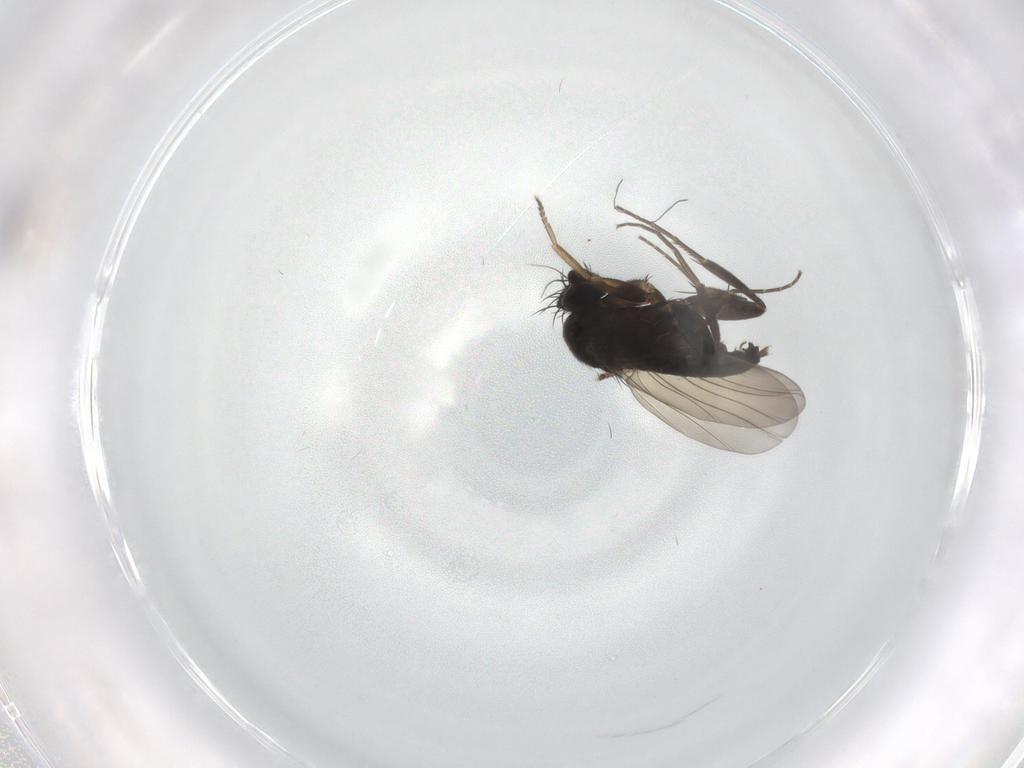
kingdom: Animalia
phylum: Arthropoda
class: Insecta
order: Diptera
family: Phoridae
